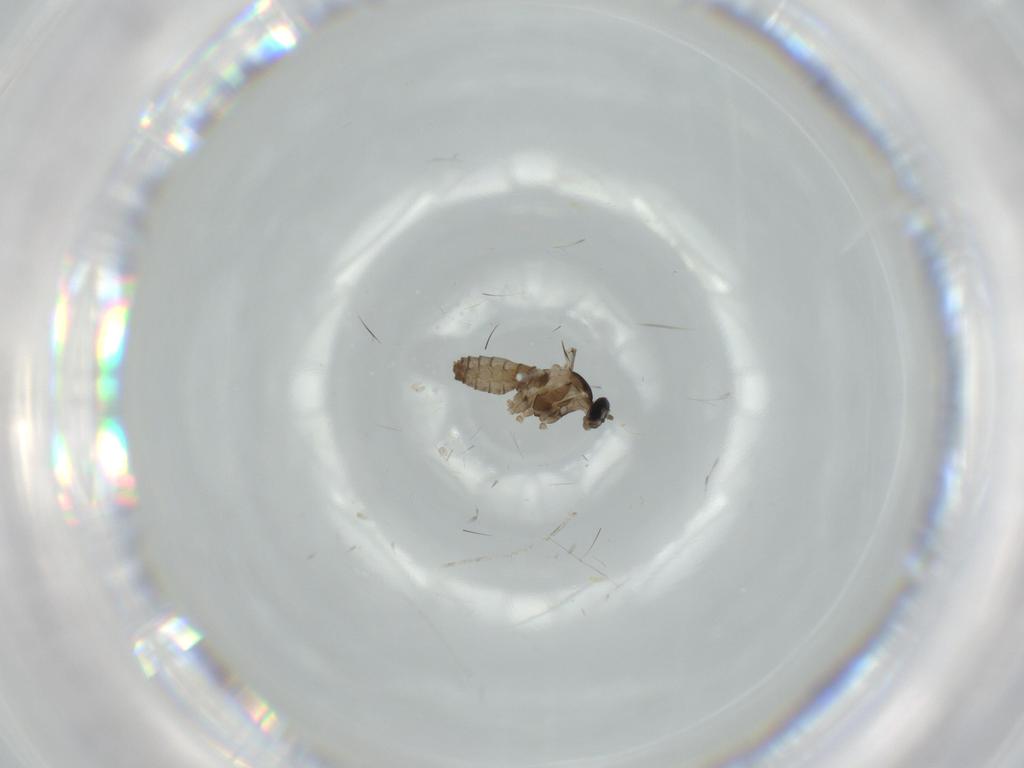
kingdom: Animalia
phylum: Arthropoda
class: Insecta
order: Diptera
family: Cecidomyiidae
